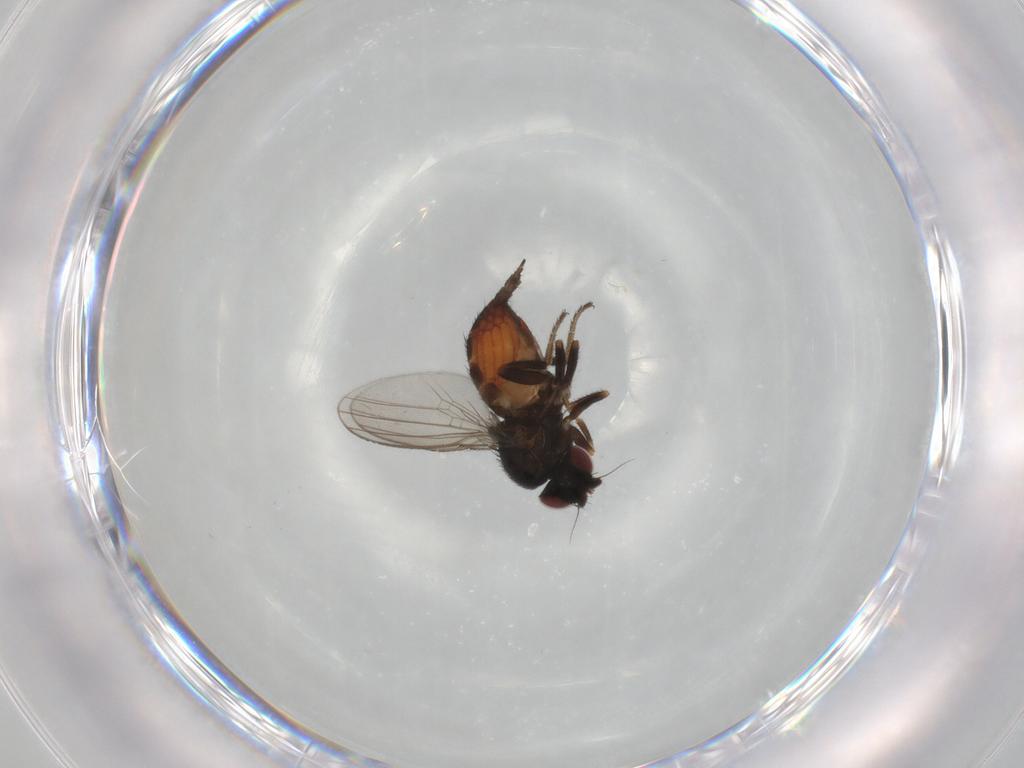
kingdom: Animalia
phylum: Arthropoda
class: Insecta
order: Diptera
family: Milichiidae
